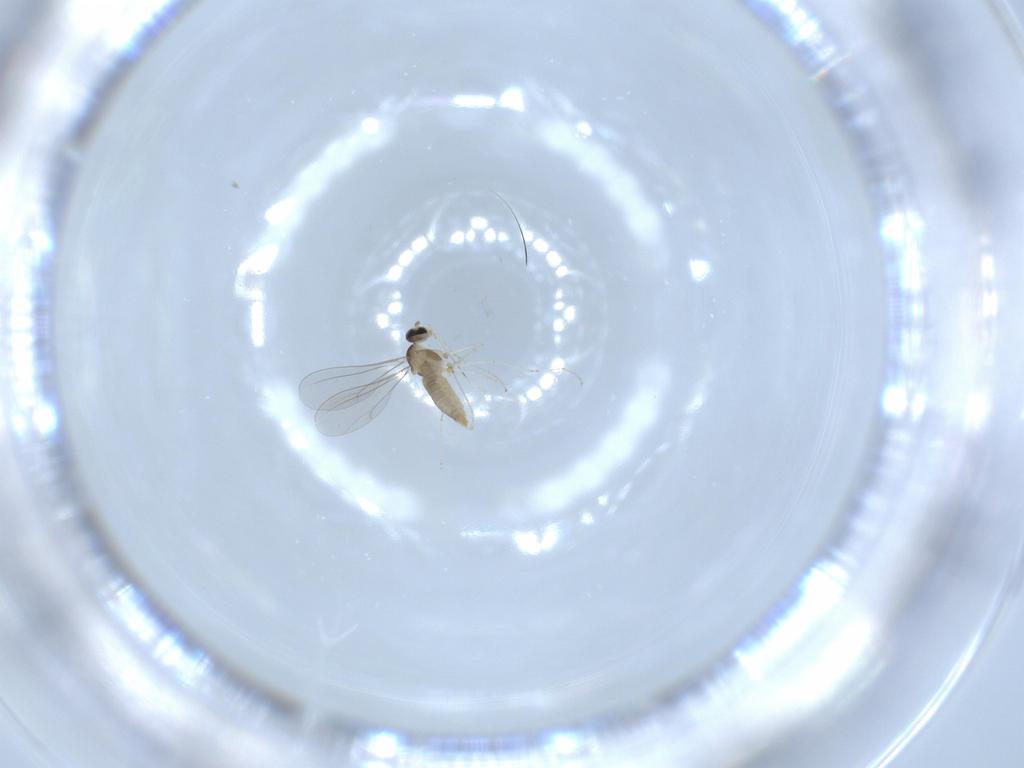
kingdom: Animalia
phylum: Arthropoda
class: Insecta
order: Diptera
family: Cecidomyiidae
